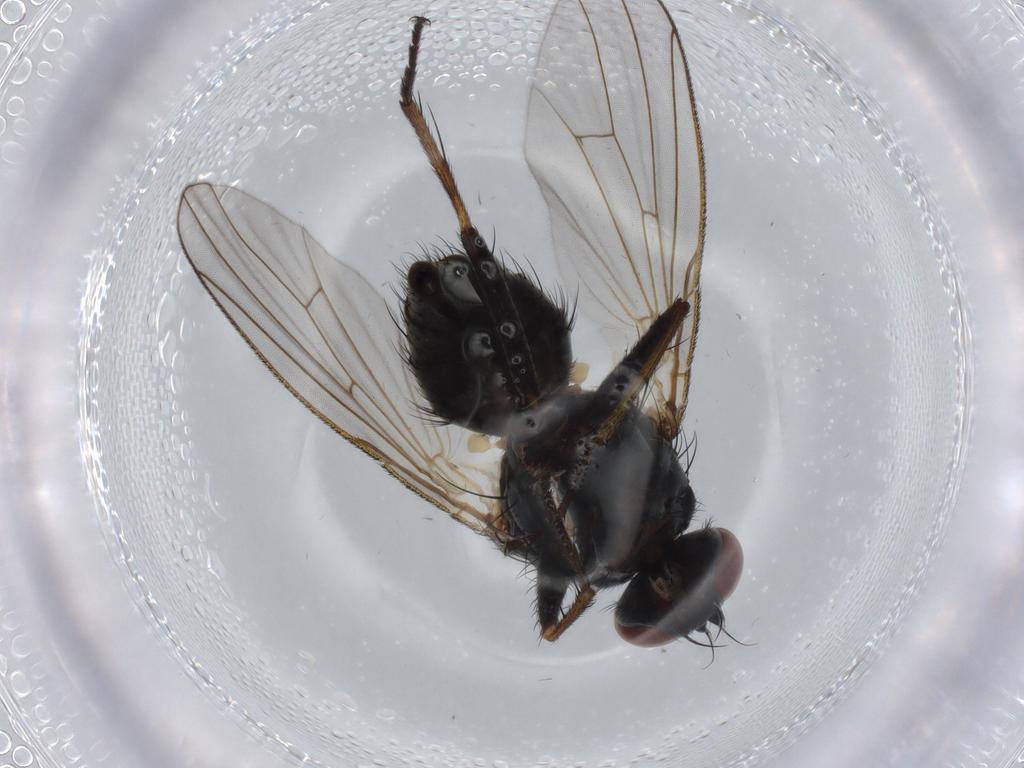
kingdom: Animalia
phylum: Arthropoda
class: Insecta
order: Diptera
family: Muscidae
